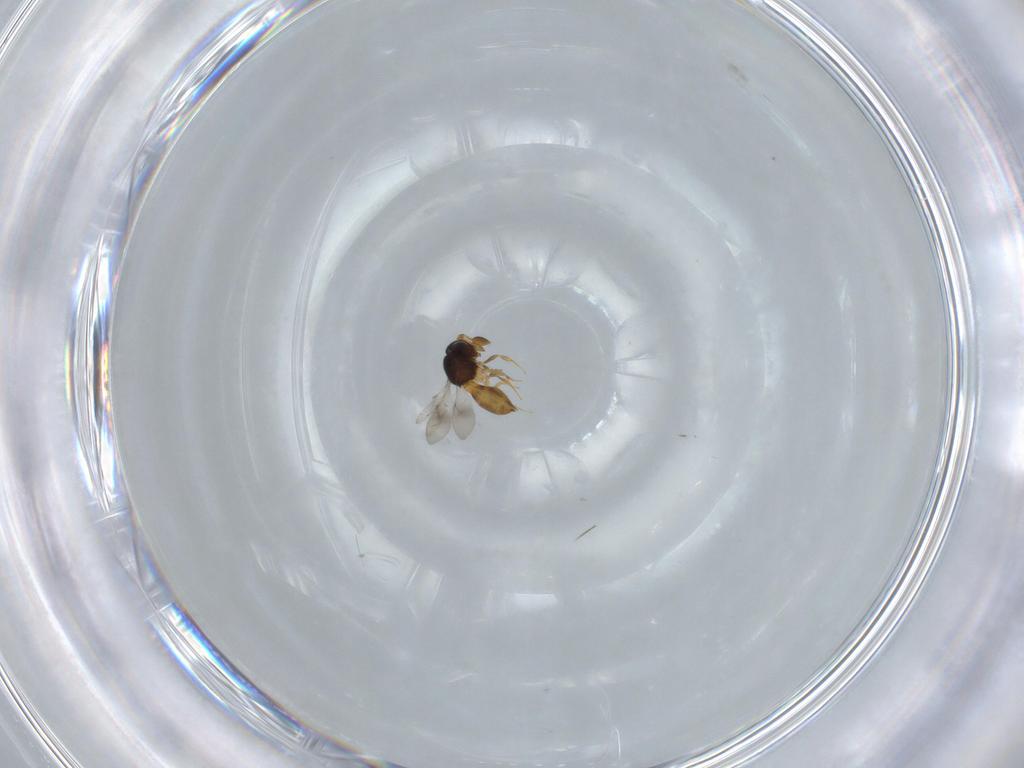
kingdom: Animalia
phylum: Arthropoda
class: Insecta
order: Hymenoptera
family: Scelionidae
